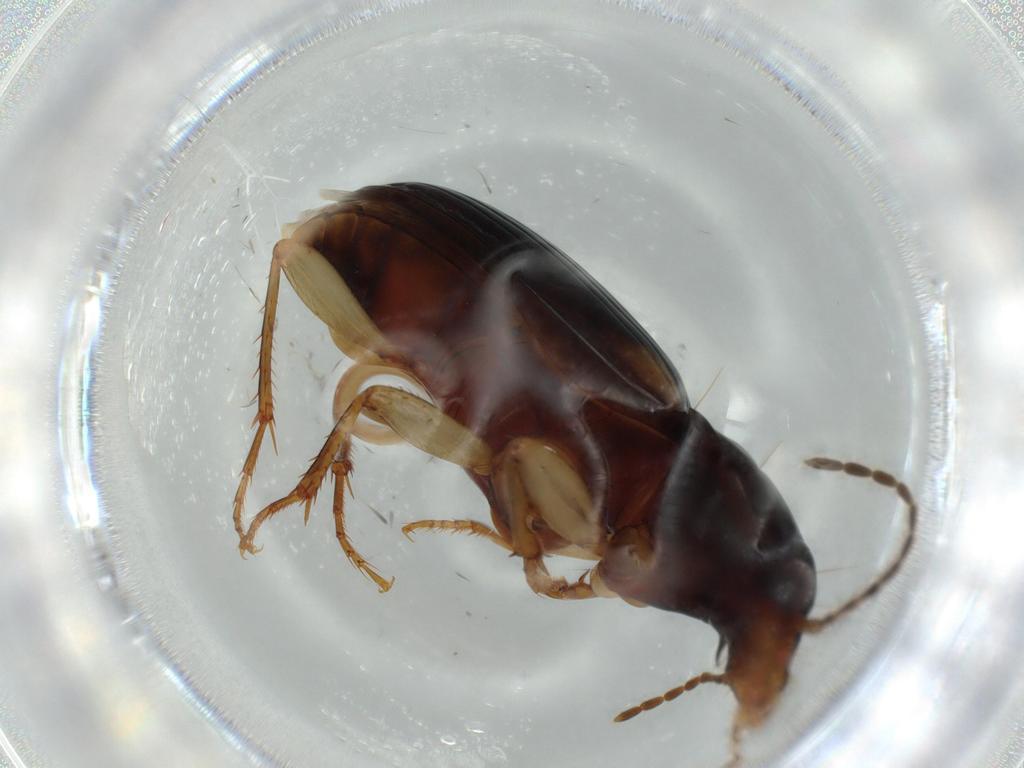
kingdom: Animalia
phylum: Arthropoda
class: Insecta
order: Coleoptera
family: Carabidae
